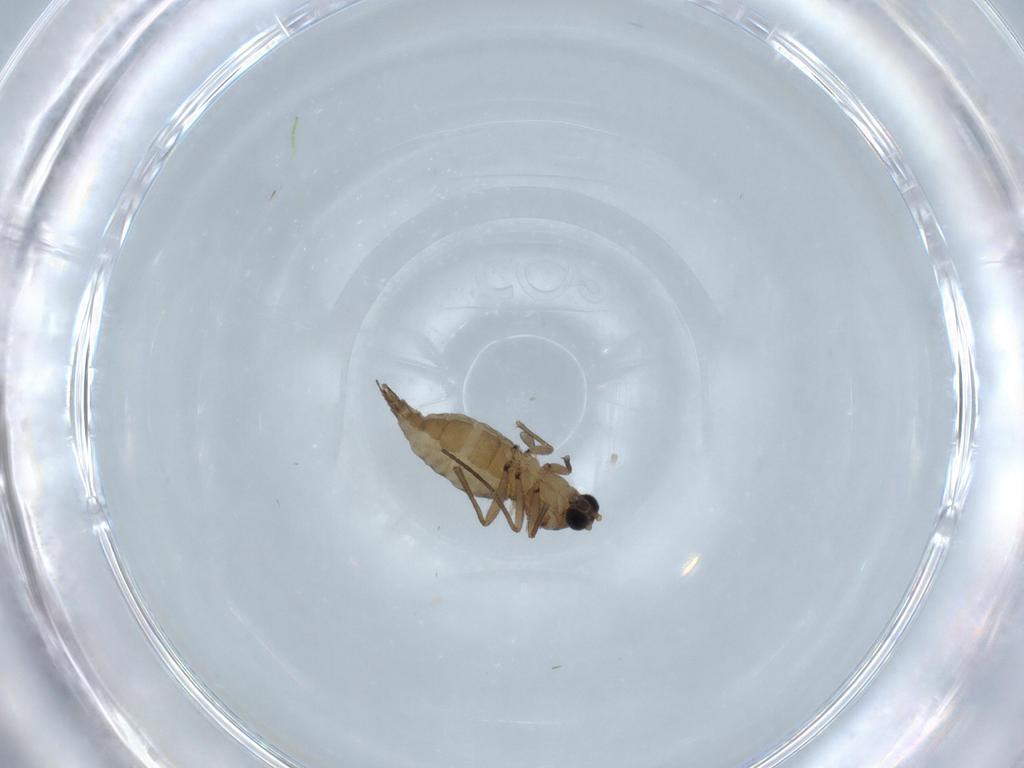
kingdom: Animalia
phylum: Arthropoda
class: Insecta
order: Diptera
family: Sciaridae
